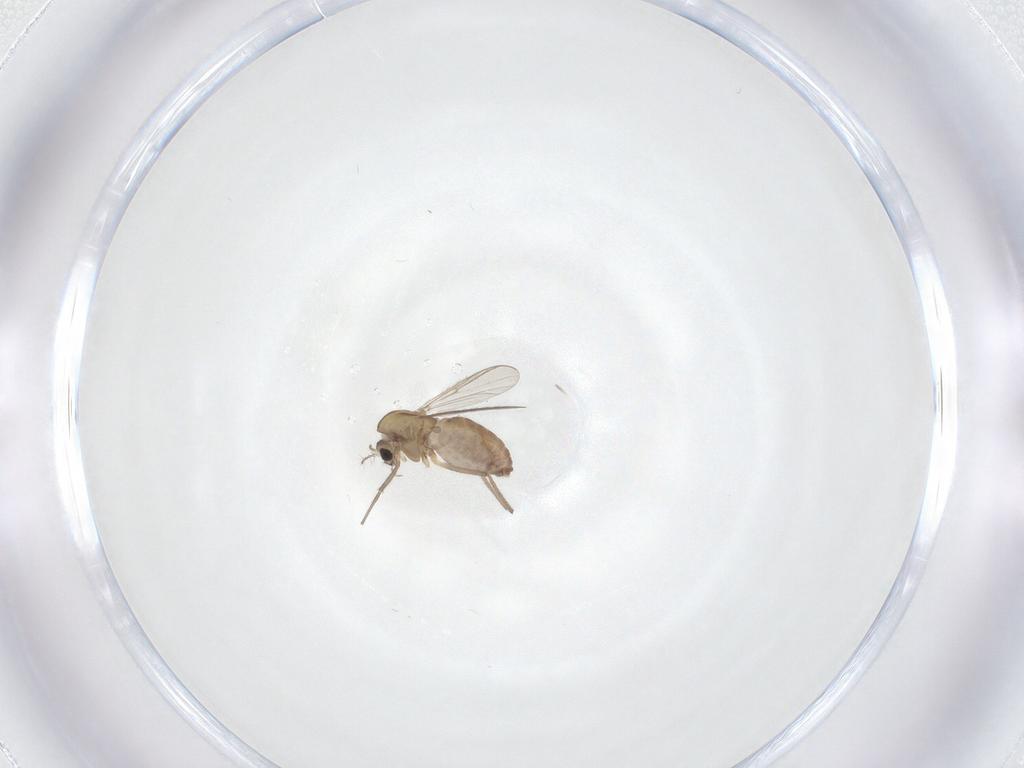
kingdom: Animalia
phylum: Arthropoda
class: Insecta
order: Diptera
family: Chironomidae
